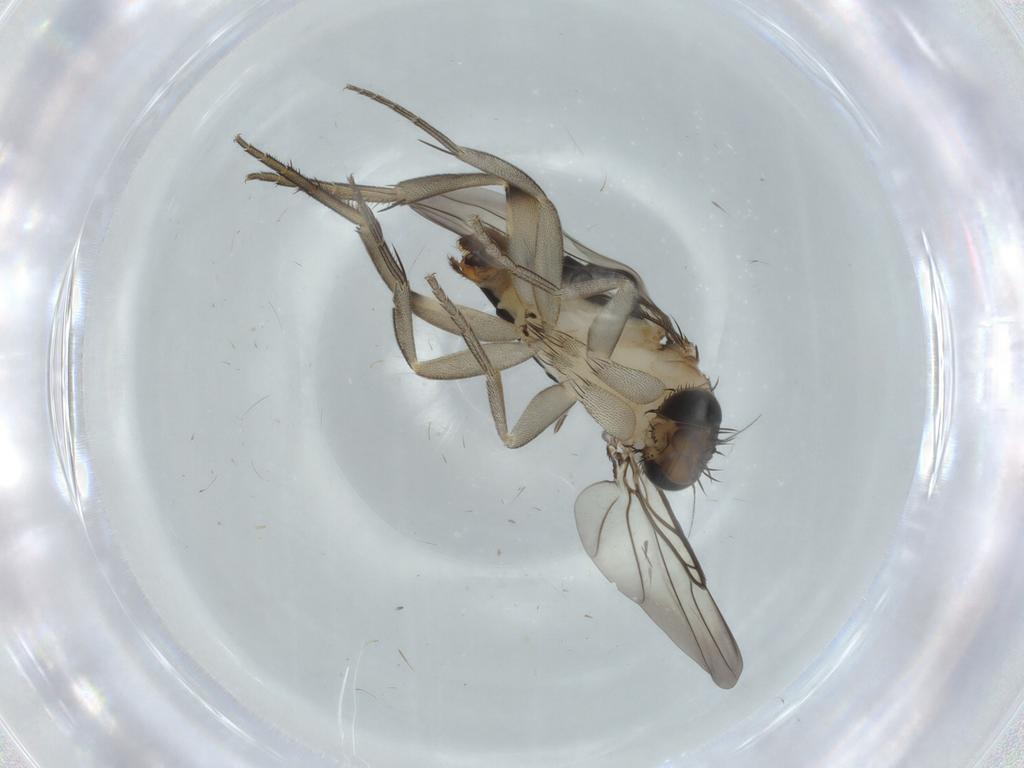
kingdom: Animalia
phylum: Arthropoda
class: Insecta
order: Diptera
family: Phoridae
